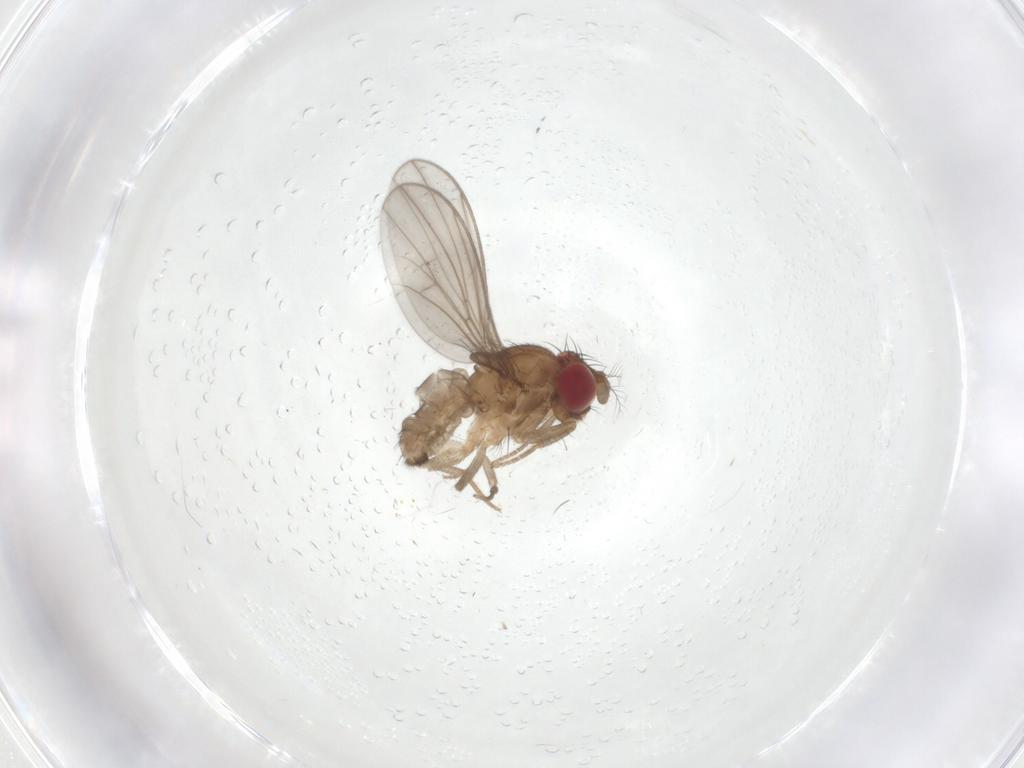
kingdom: Animalia
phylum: Arthropoda
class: Insecta
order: Diptera
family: Drosophilidae
